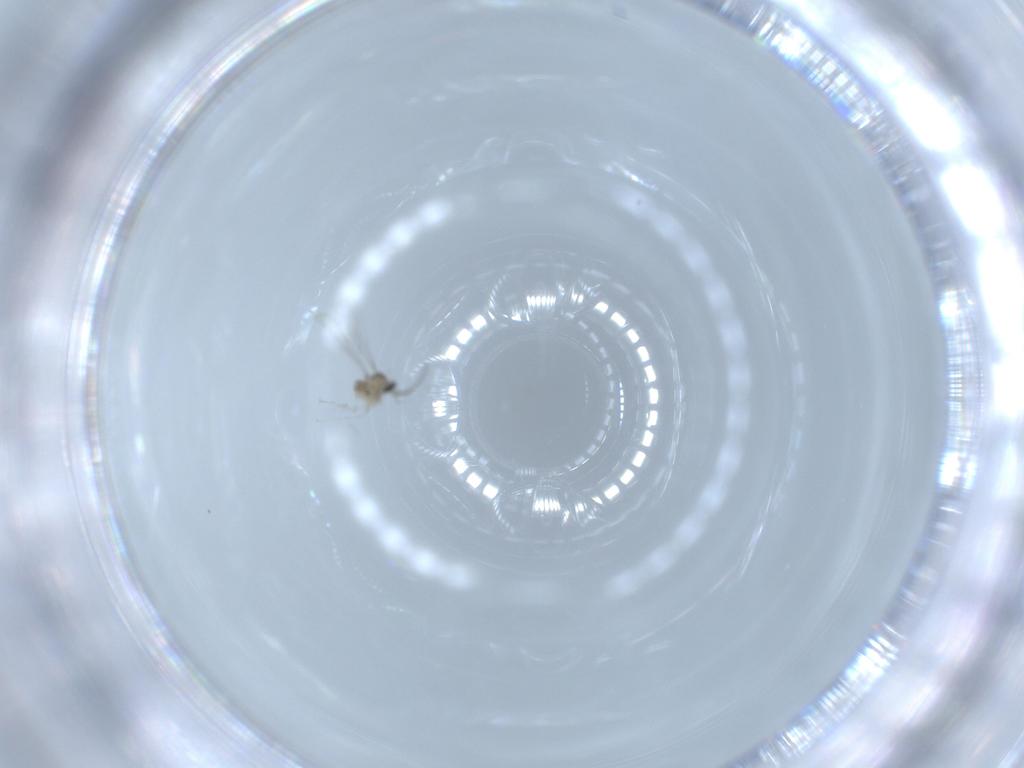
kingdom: Animalia
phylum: Arthropoda
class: Insecta
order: Diptera
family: Cecidomyiidae
